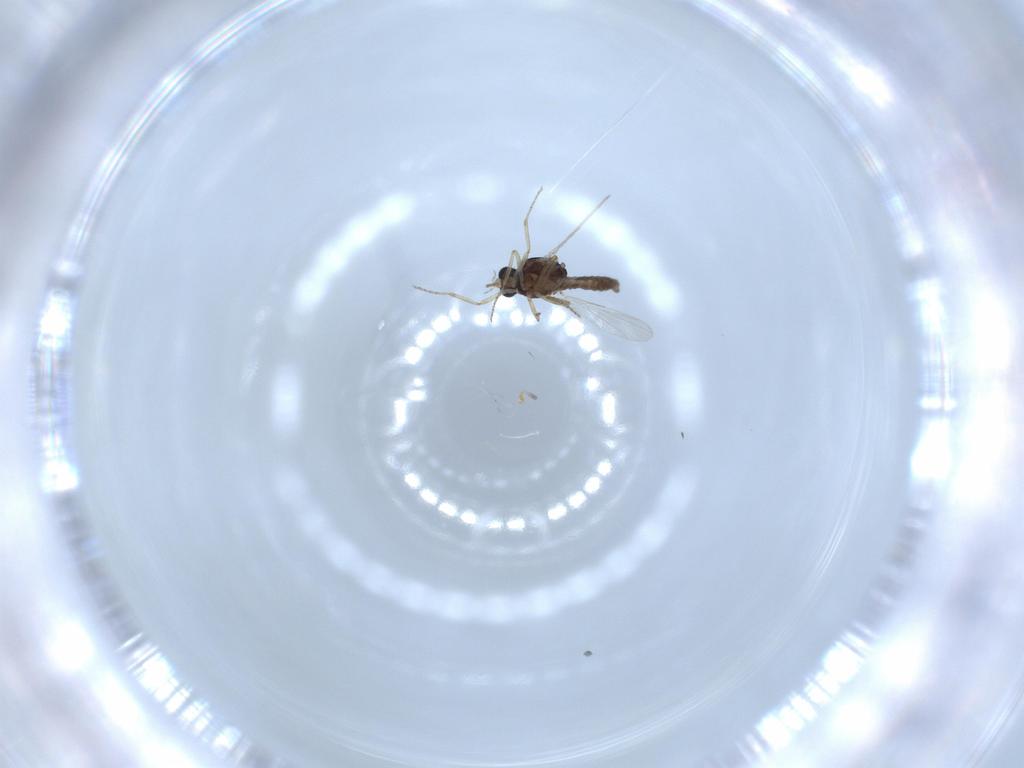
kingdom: Animalia
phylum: Arthropoda
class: Insecta
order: Diptera
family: Ceratopogonidae
